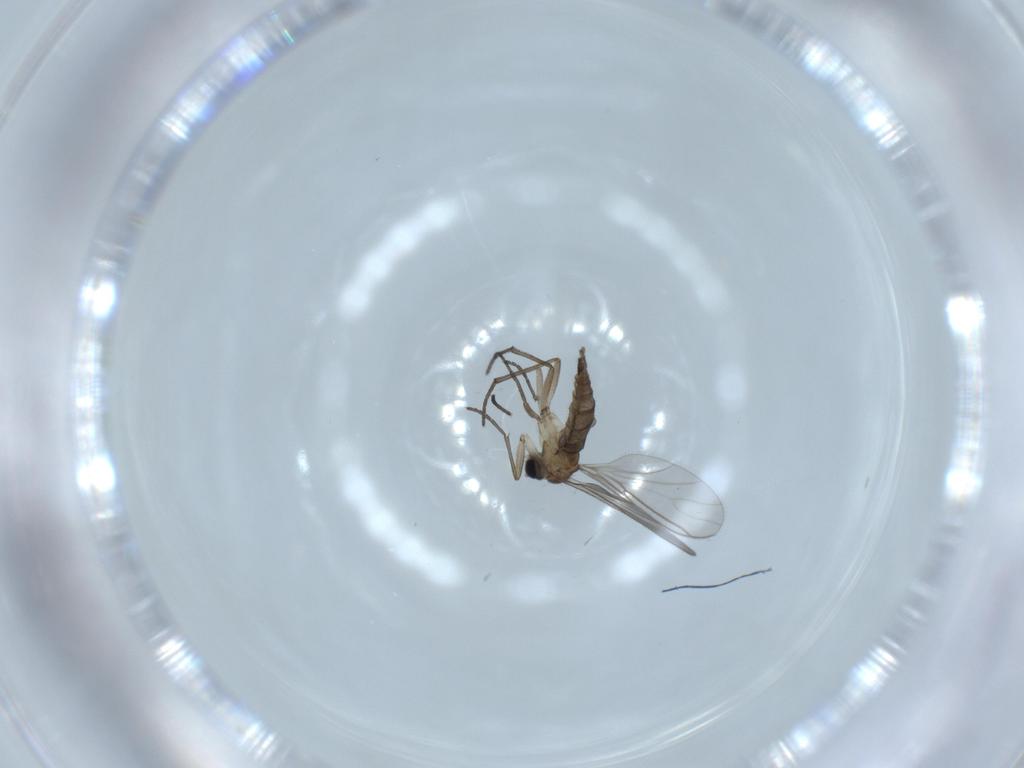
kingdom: Animalia
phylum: Arthropoda
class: Insecta
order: Diptera
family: Sciaridae
